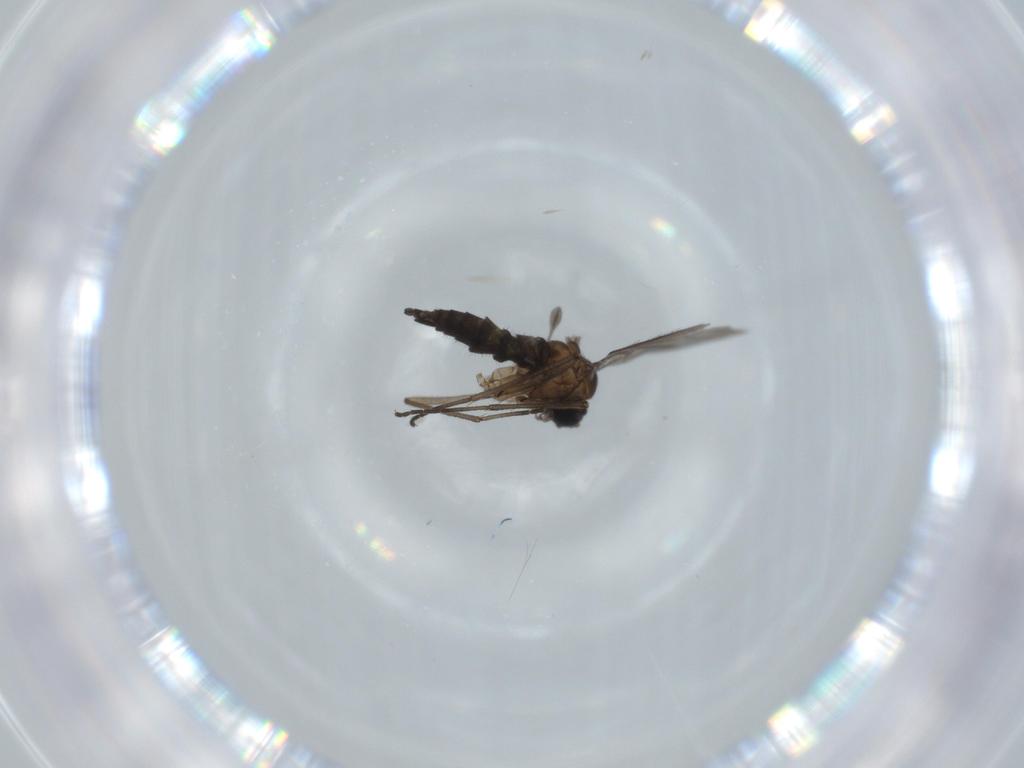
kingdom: Animalia
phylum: Arthropoda
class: Insecta
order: Diptera
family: Sciaridae
